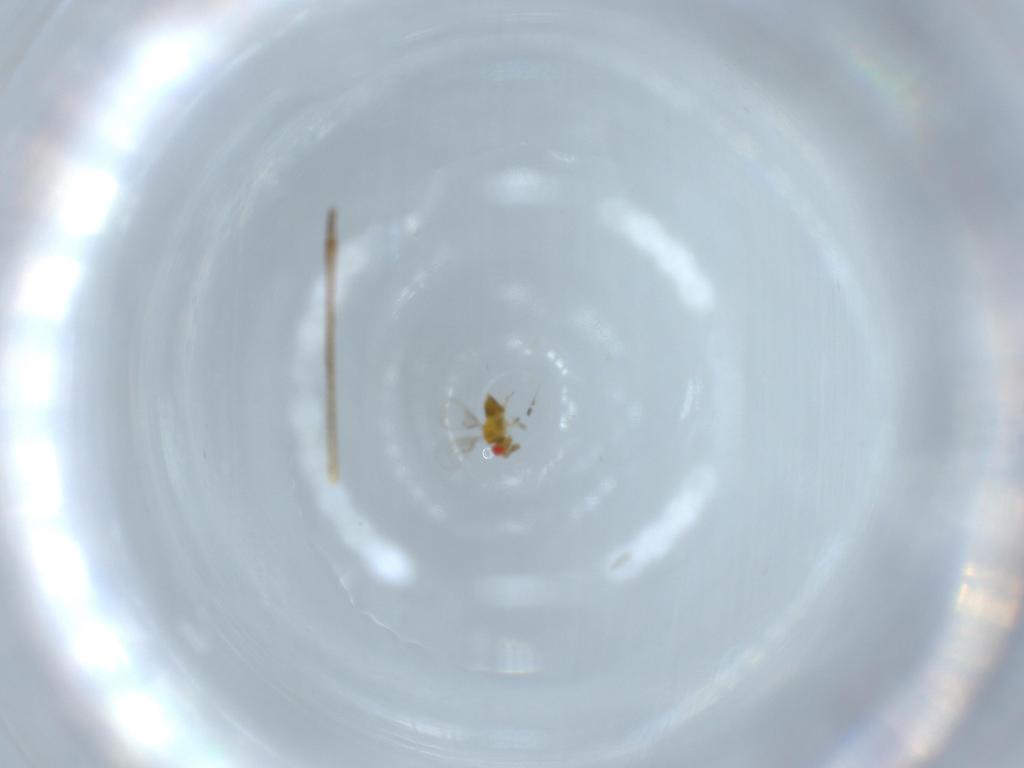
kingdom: Animalia
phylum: Arthropoda
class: Insecta
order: Hymenoptera
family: Trichogrammatidae
